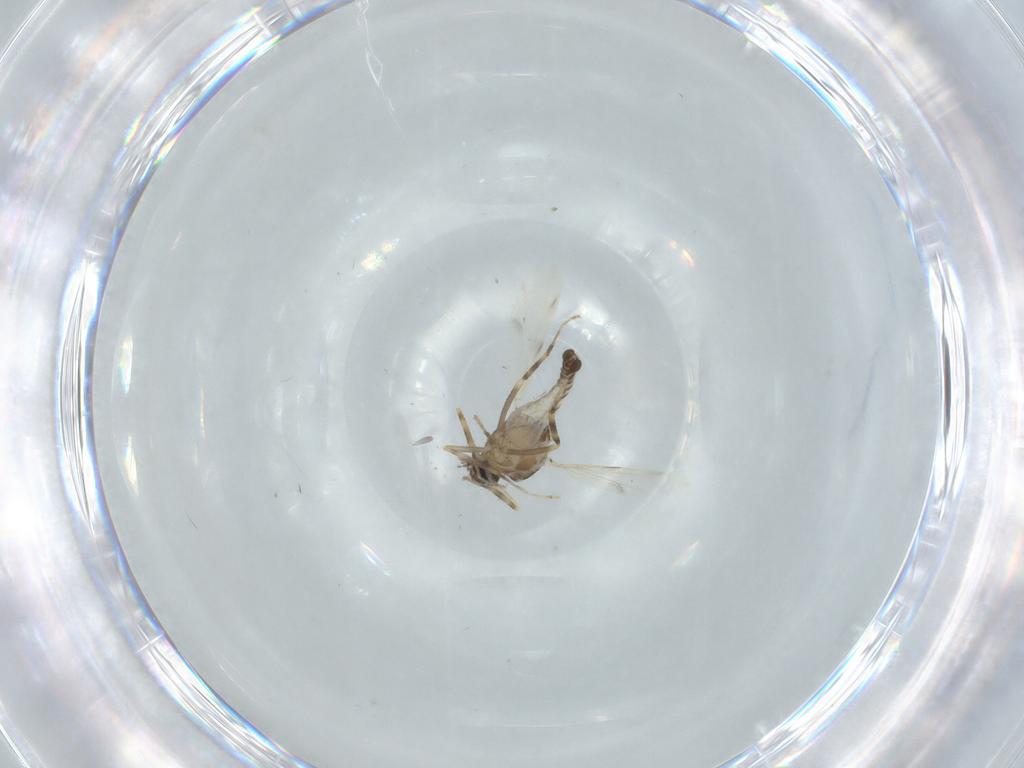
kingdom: Animalia
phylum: Arthropoda
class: Insecta
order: Diptera
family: Ceratopogonidae
